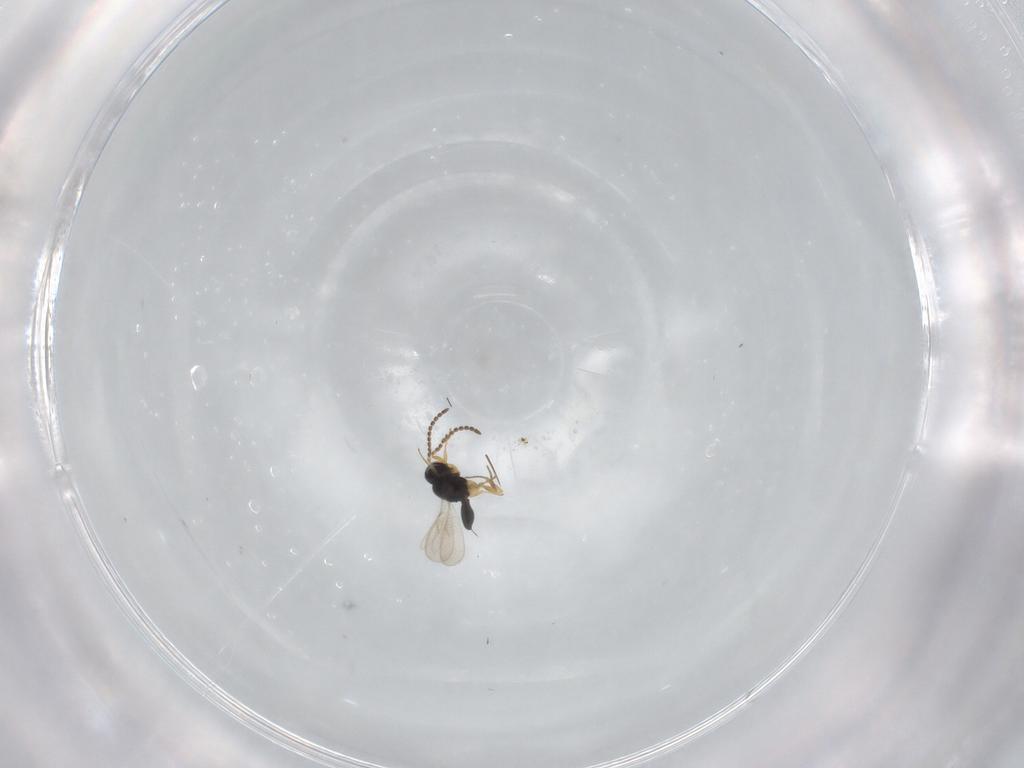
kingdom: Animalia
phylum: Arthropoda
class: Insecta
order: Hymenoptera
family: Scelionidae
